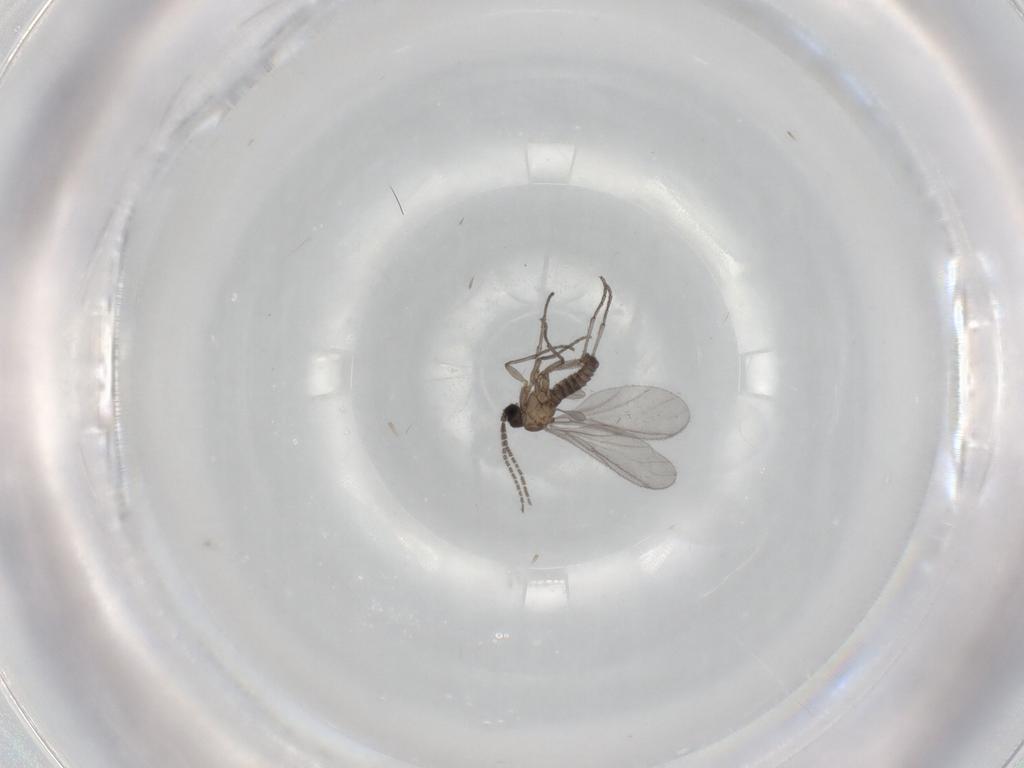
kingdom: Animalia
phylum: Arthropoda
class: Insecta
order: Diptera
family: Sciaridae
